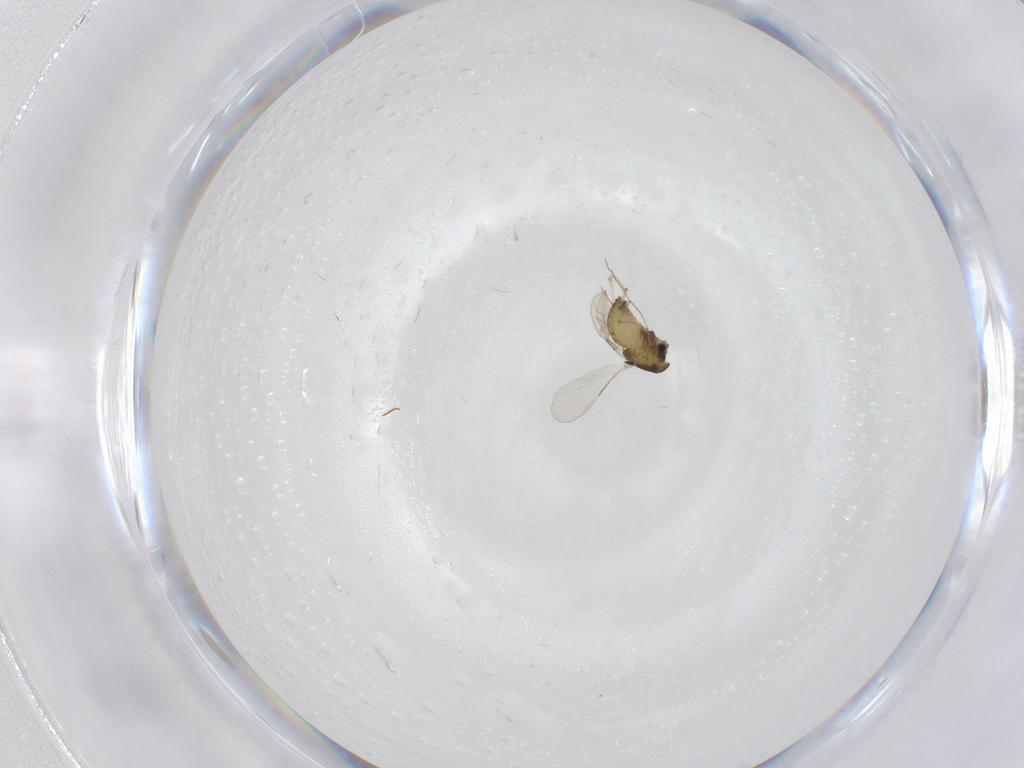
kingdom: Animalia
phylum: Arthropoda
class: Insecta
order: Diptera
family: Chironomidae
